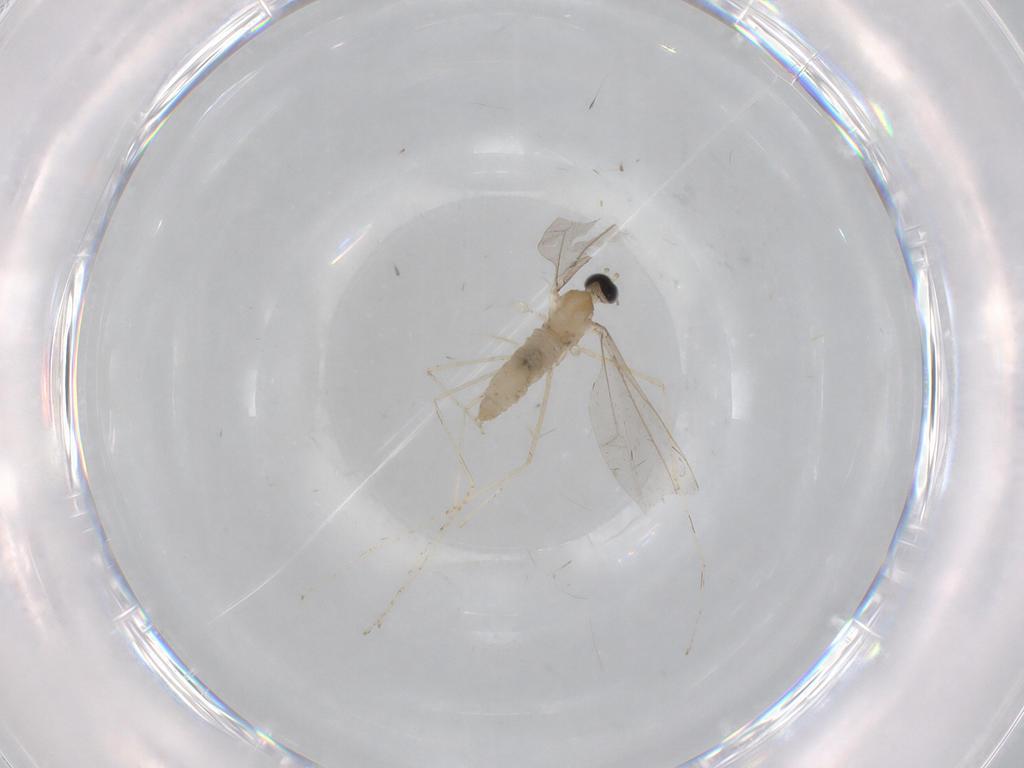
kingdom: Animalia
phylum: Arthropoda
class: Insecta
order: Diptera
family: Cecidomyiidae
